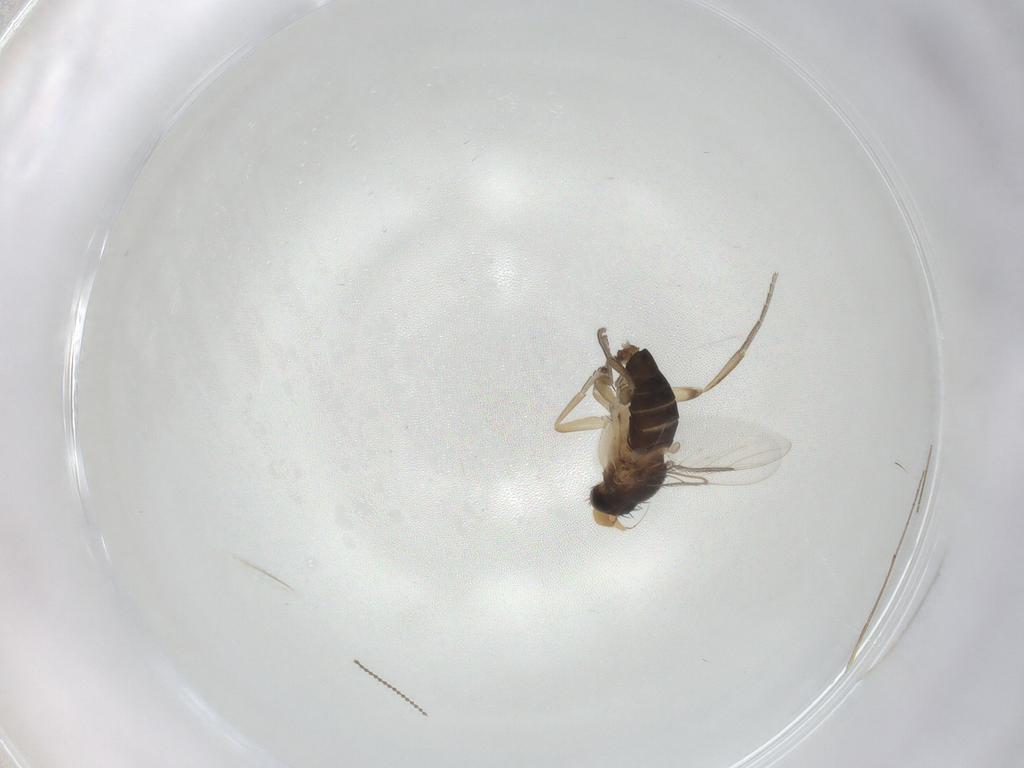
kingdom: Animalia
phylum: Arthropoda
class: Insecta
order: Diptera
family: Phoridae
